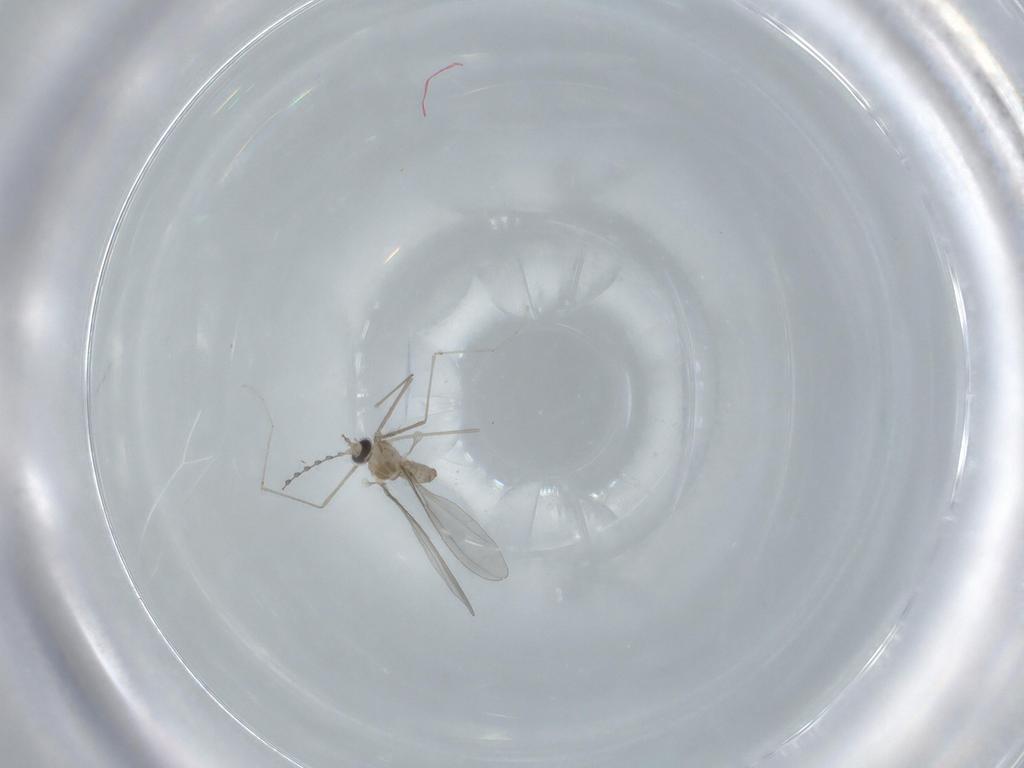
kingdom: Animalia
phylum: Arthropoda
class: Insecta
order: Diptera
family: Cecidomyiidae
